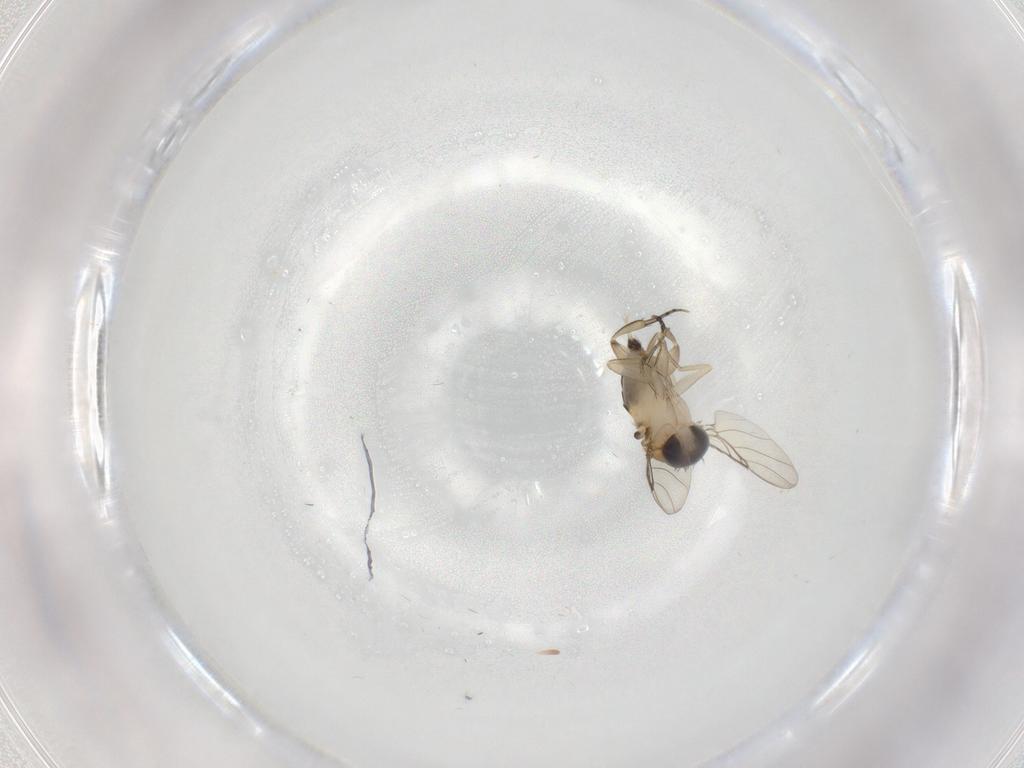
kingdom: Animalia
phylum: Arthropoda
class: Insecta
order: Diptera
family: Phoridae
